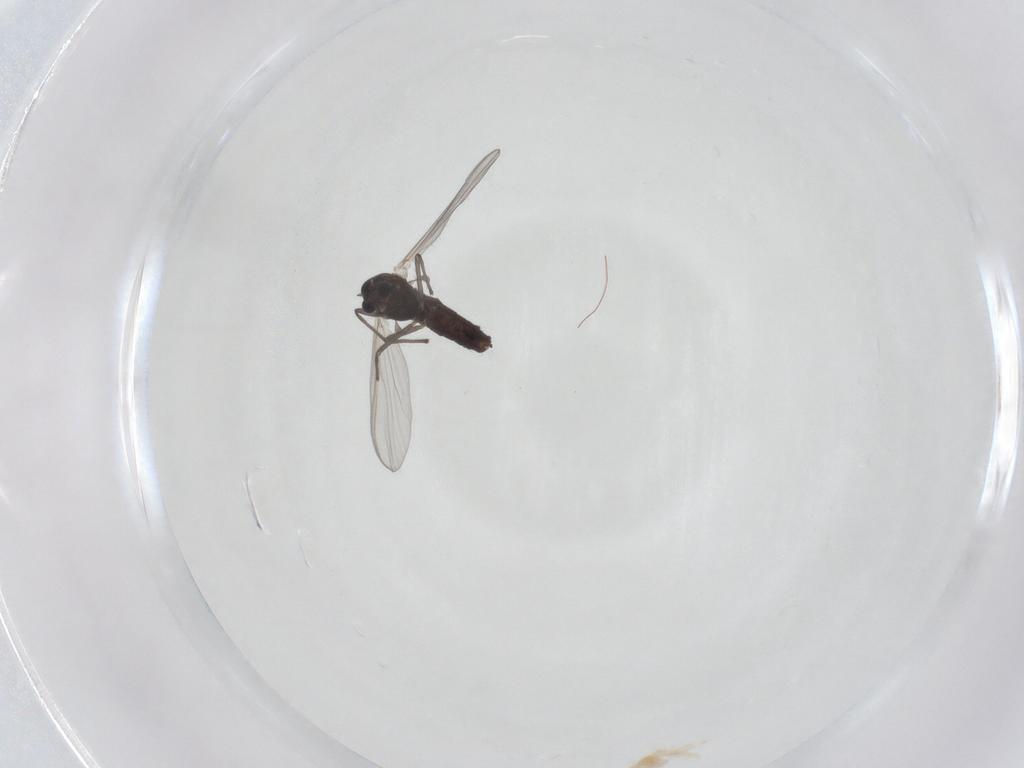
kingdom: Animalia
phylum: Arthropoda
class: Insecta
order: Diptera
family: Chironomidae
